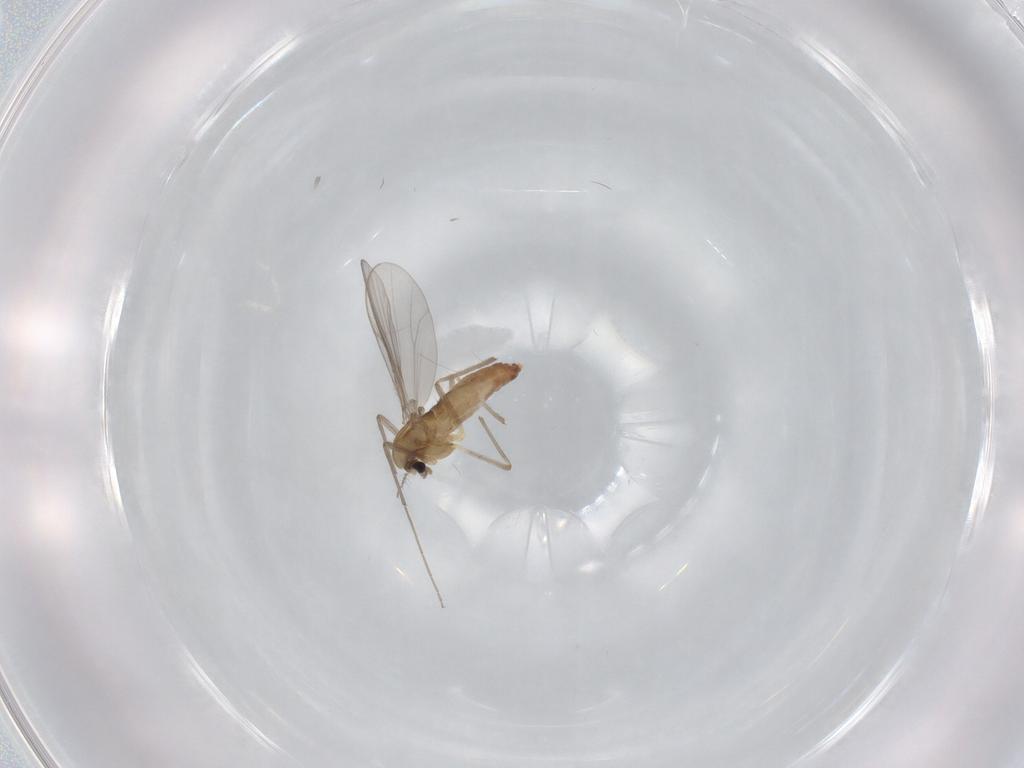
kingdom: Animalia
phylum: Arthropoda
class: Insecta
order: Diptera
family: Chironomidae
